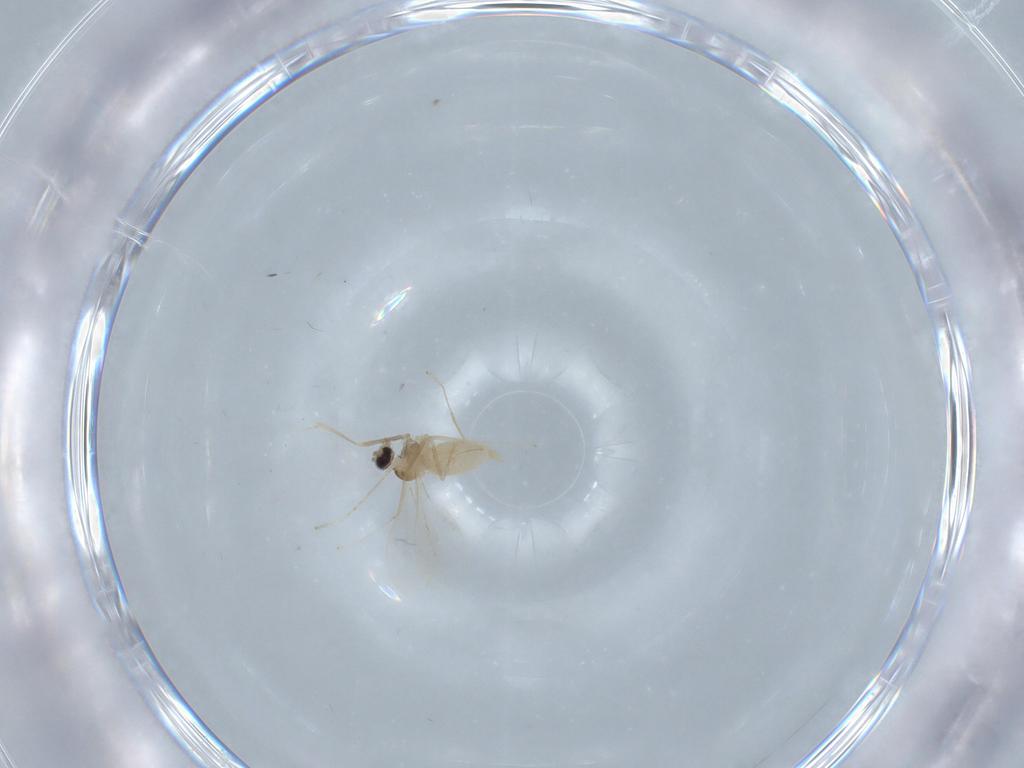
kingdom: Animalia
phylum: Arthropoda
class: Insecta
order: Diptera
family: Cecidomyiidae
